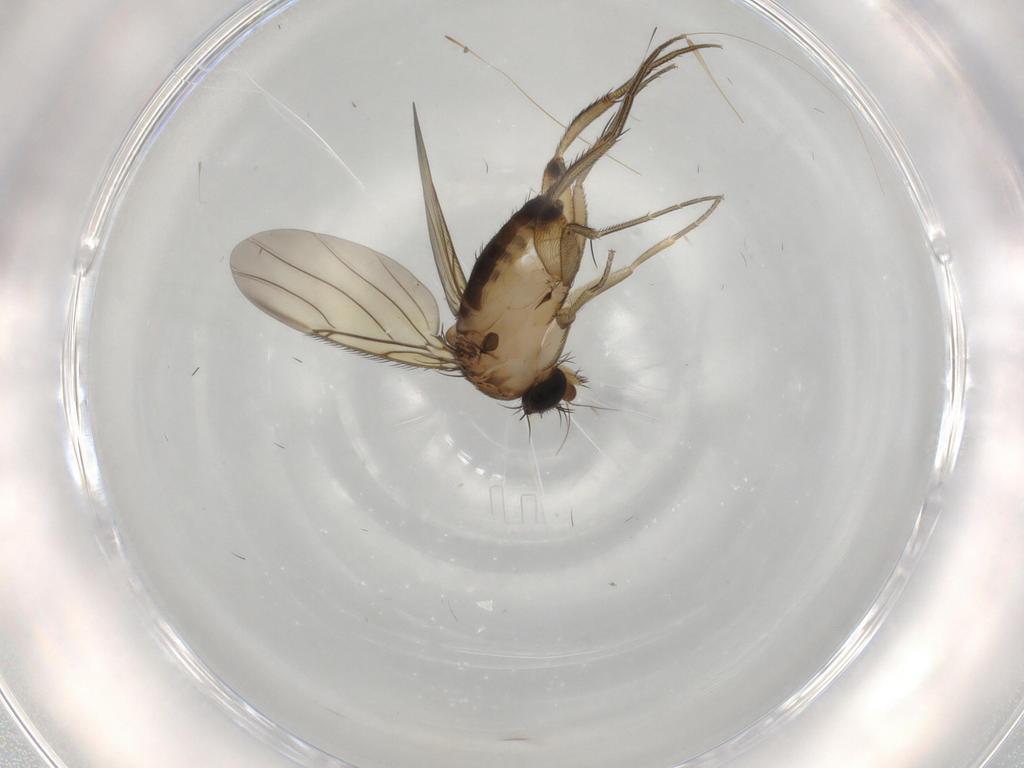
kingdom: Animalia
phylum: Arthropoda
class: Insecta
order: Diptera
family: Phoridae
